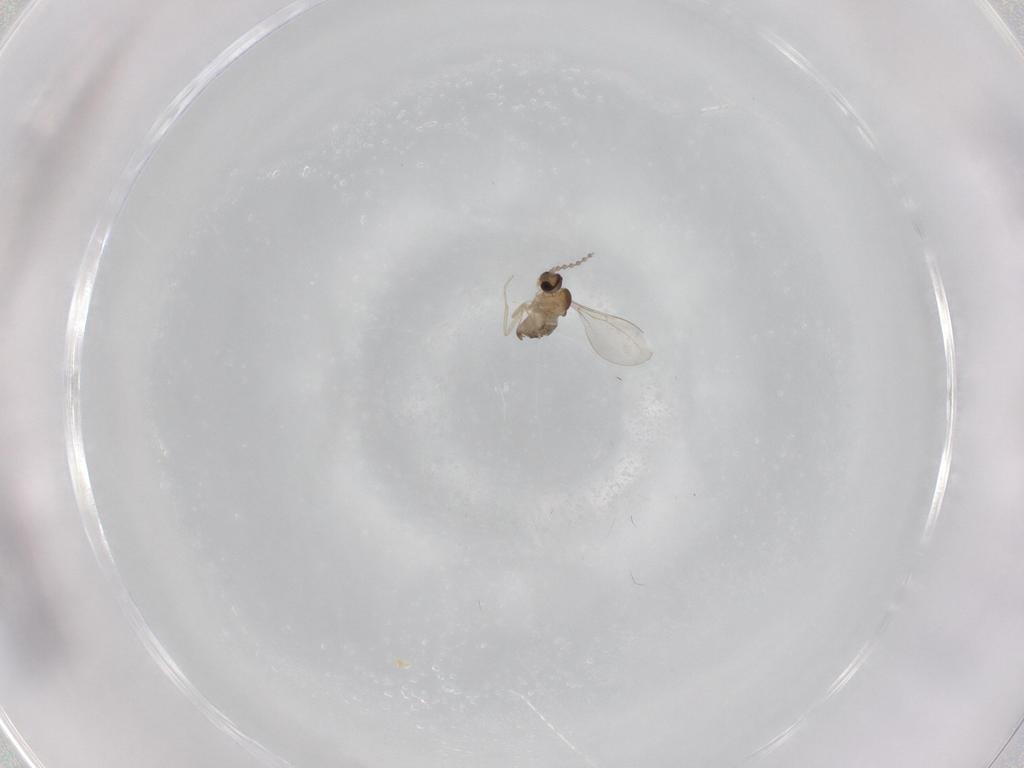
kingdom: Animalia
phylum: Arthropoda
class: Insecta
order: Diptera
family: Cecidomyiidae
